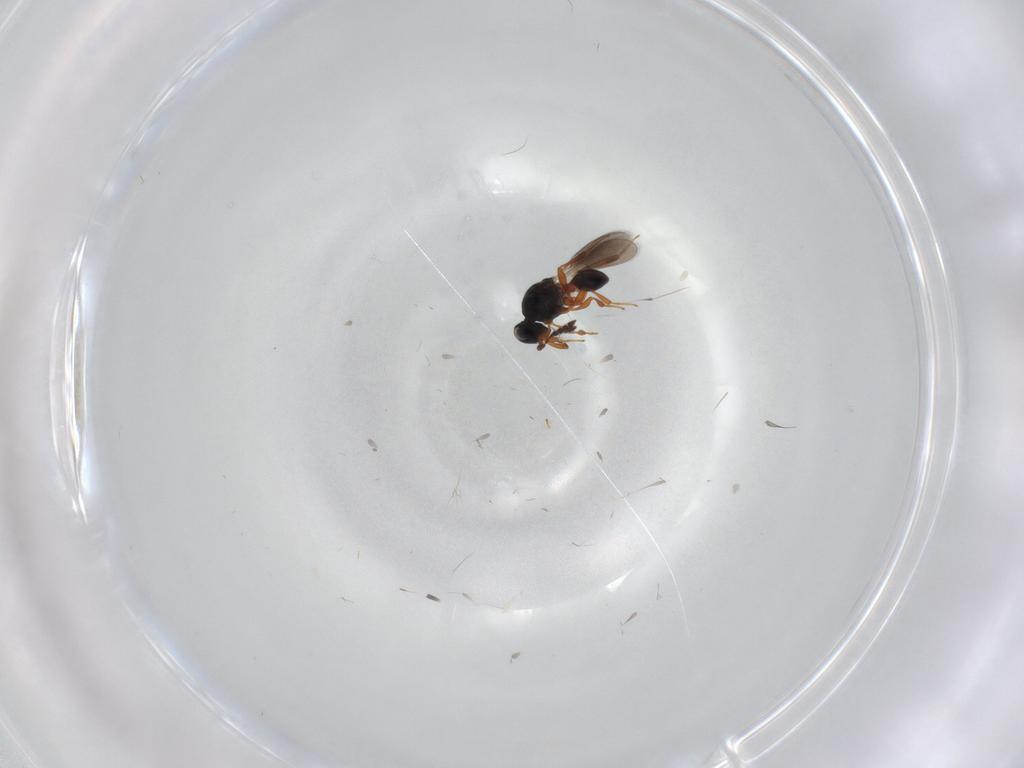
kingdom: Animalia
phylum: Arthropoda
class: Insecta
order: Hymenoptera
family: Platygastridae
